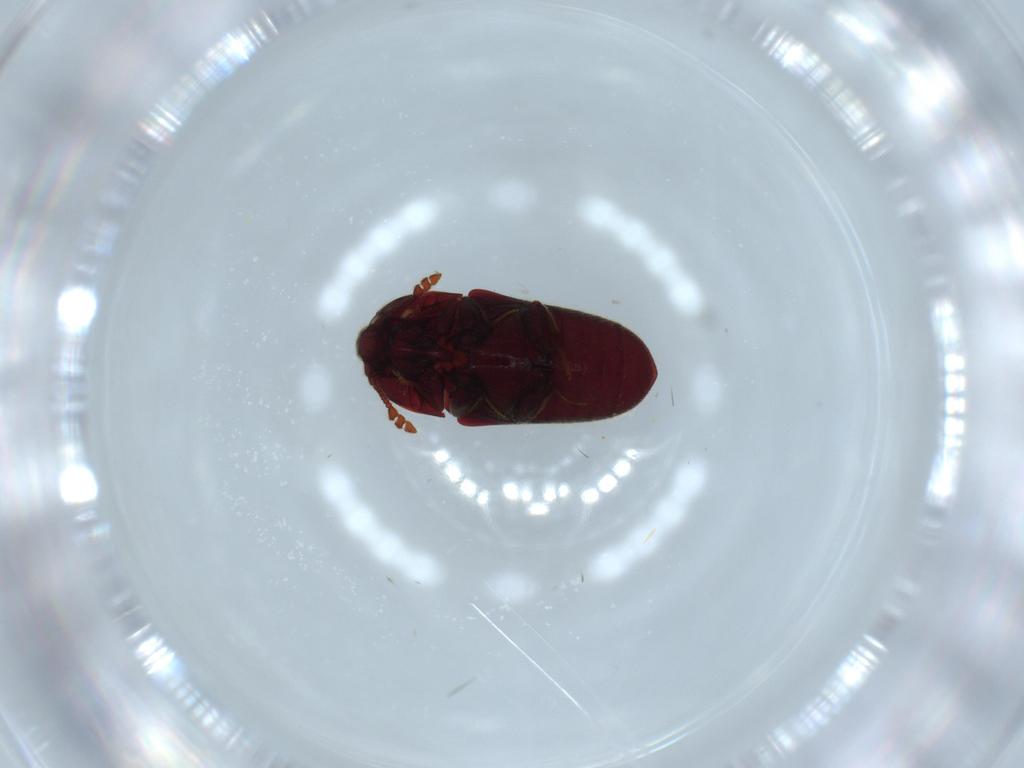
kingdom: Animalia
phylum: Arthropoda
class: Insecta
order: Coleoptera
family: Throscidae
